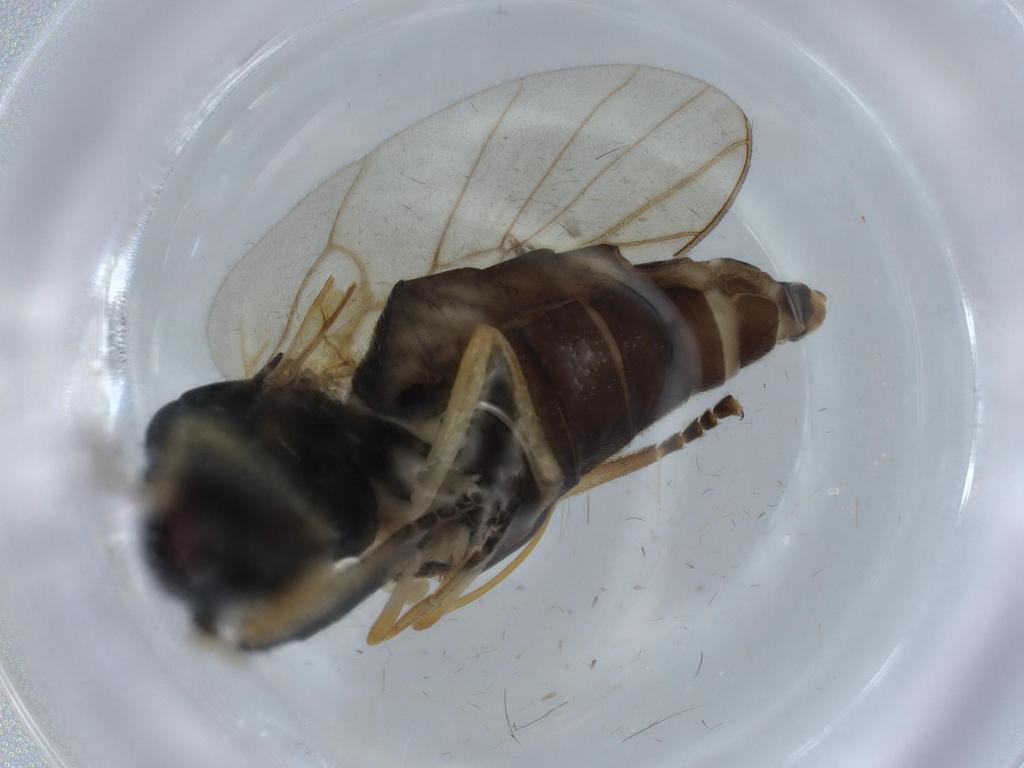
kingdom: Animalia
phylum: Arthropoda
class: Insecta
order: Diptera
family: Stratiomyidae
